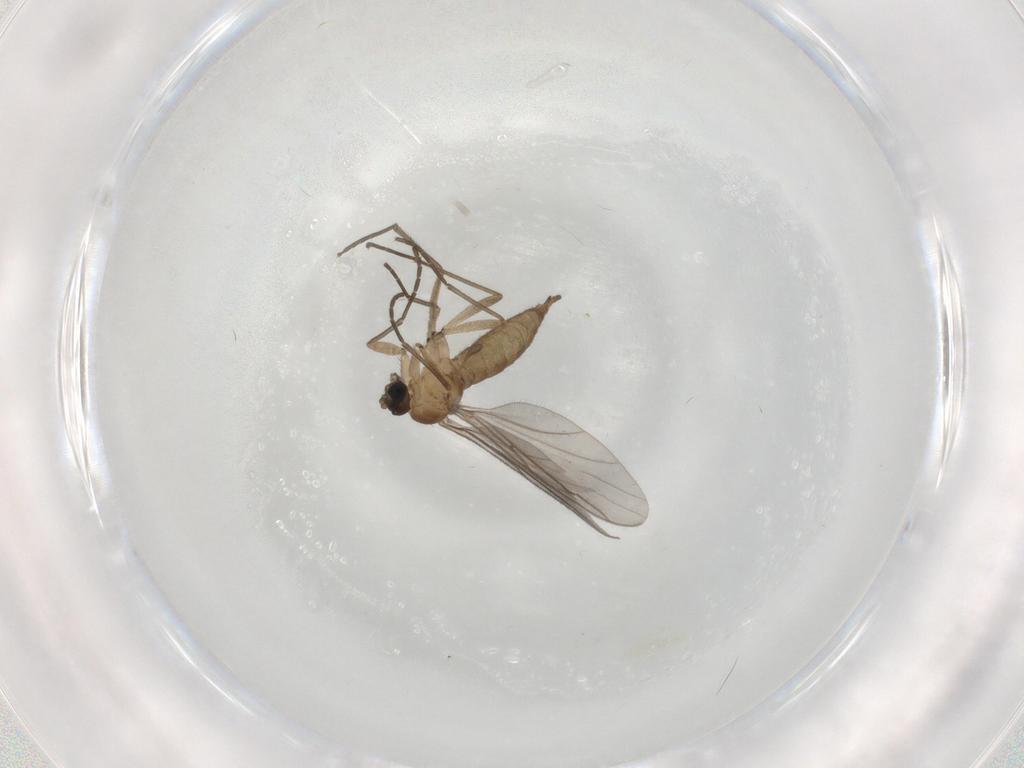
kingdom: Animalia
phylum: Arthropoda
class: Insecta
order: Diptera
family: Sciaridae
